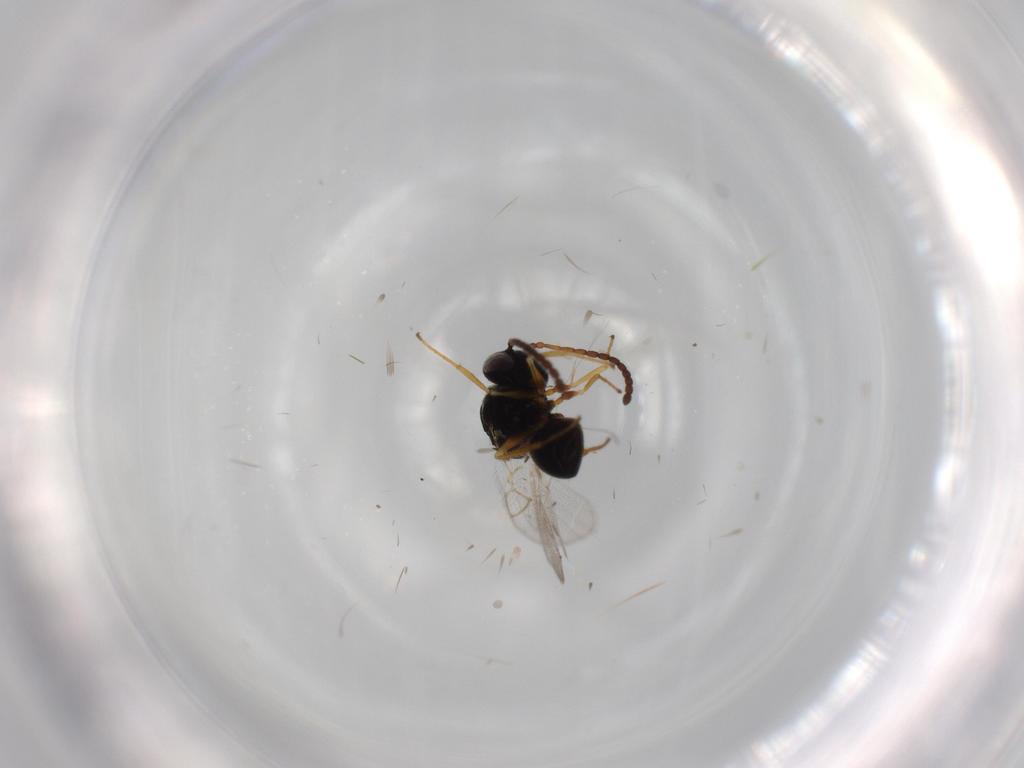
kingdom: Animalia
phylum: Arthropoda
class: Insecta
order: Hymenoptera
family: Figitidae
